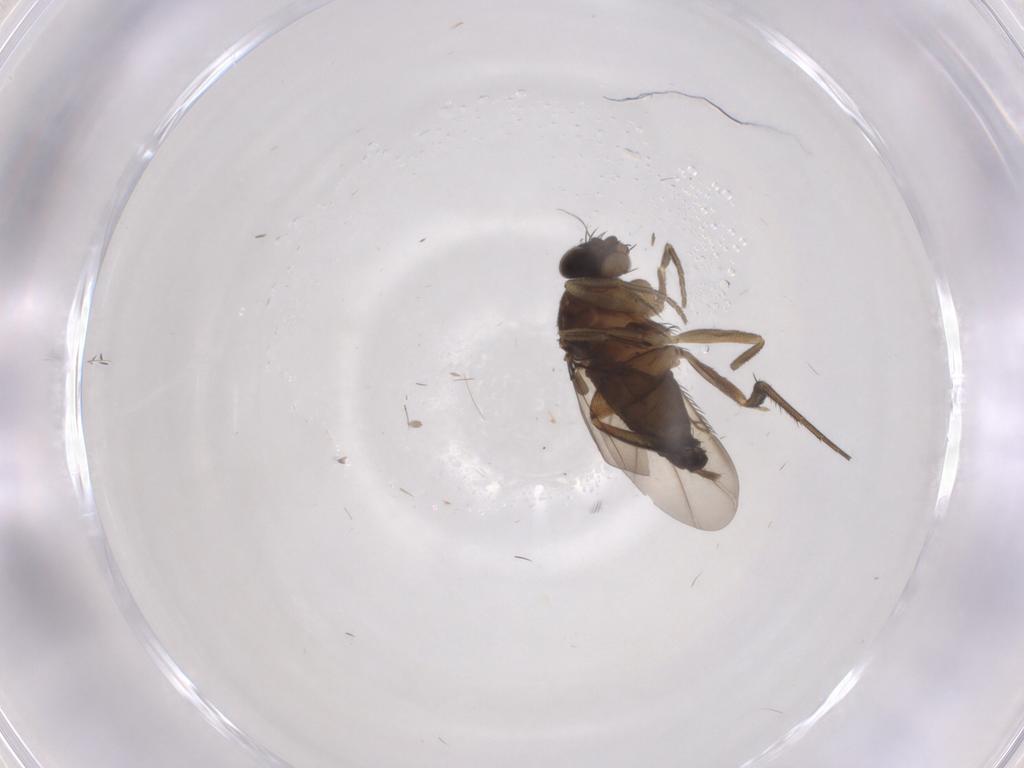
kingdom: Animalia
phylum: Arthropoda
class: Insecta
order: Diptera
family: Phoridae
